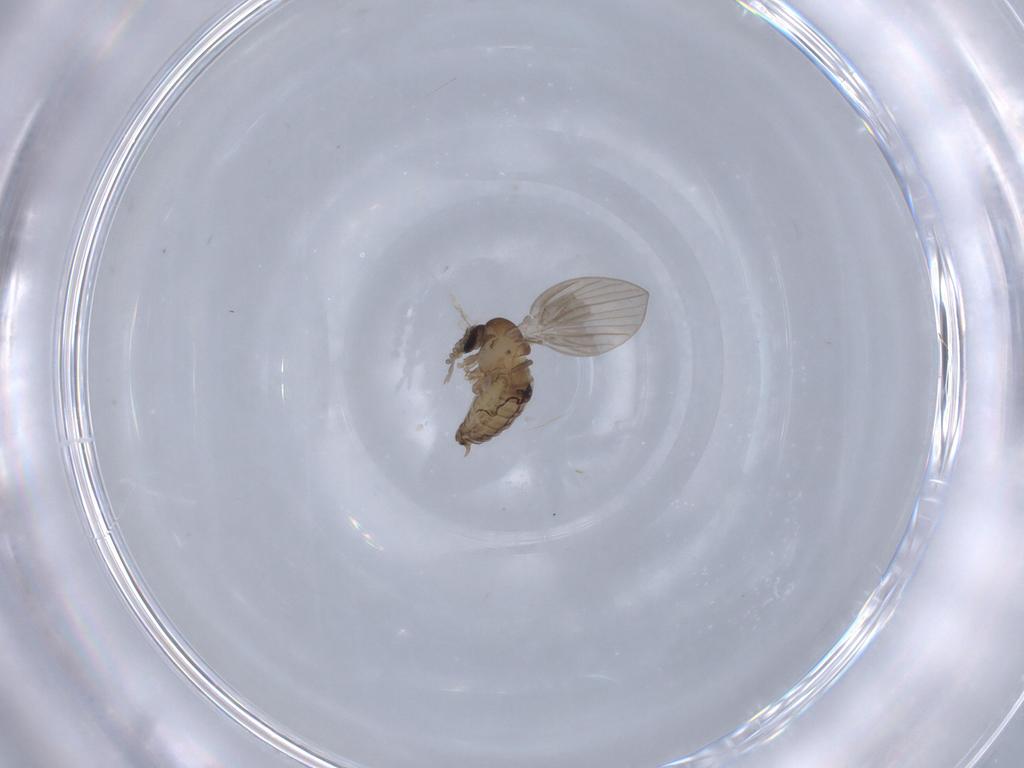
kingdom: Animalia
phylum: Arthropoda
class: Insecta
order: Diptera
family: Psychodidae
